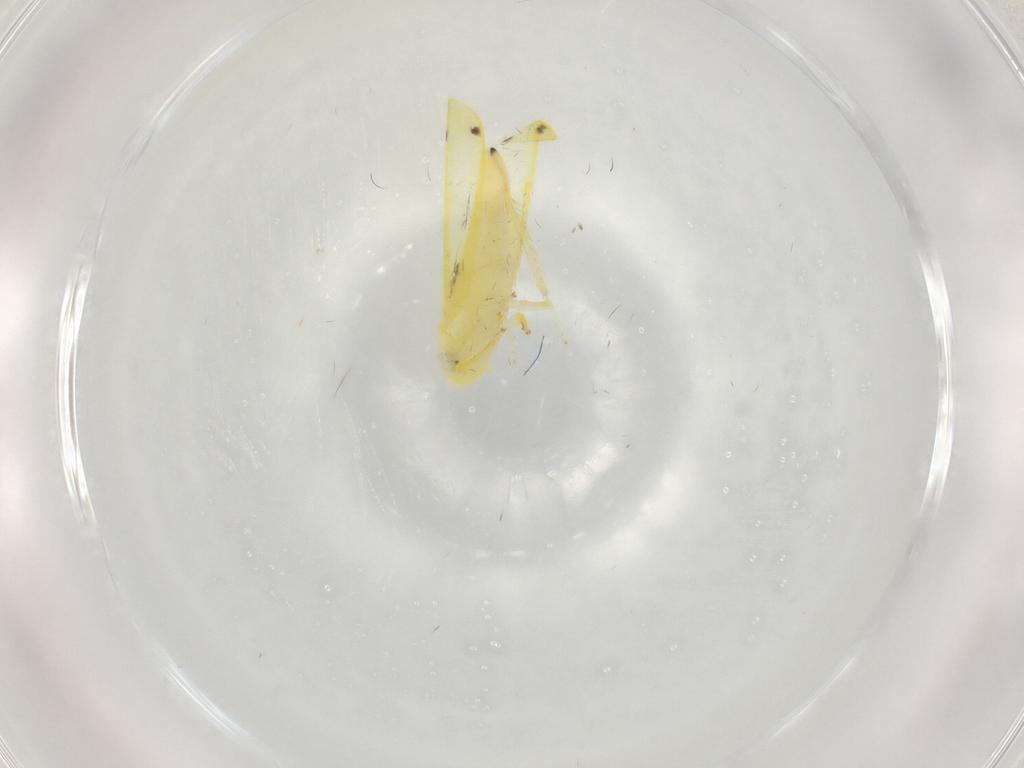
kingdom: Animalia
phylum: Arthropoda
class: Insecta
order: Hemiptera
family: Cicadellidae
